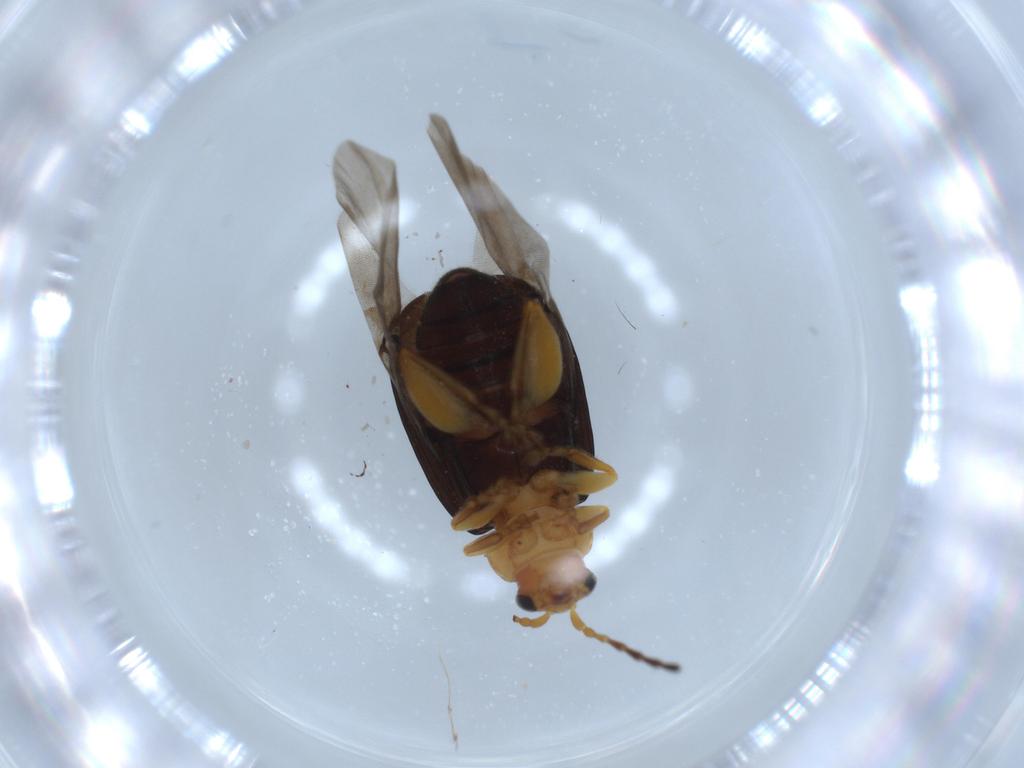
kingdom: Animalia
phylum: Arthropoda
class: Insecta
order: Coleoptera
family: Chrysomelidae
